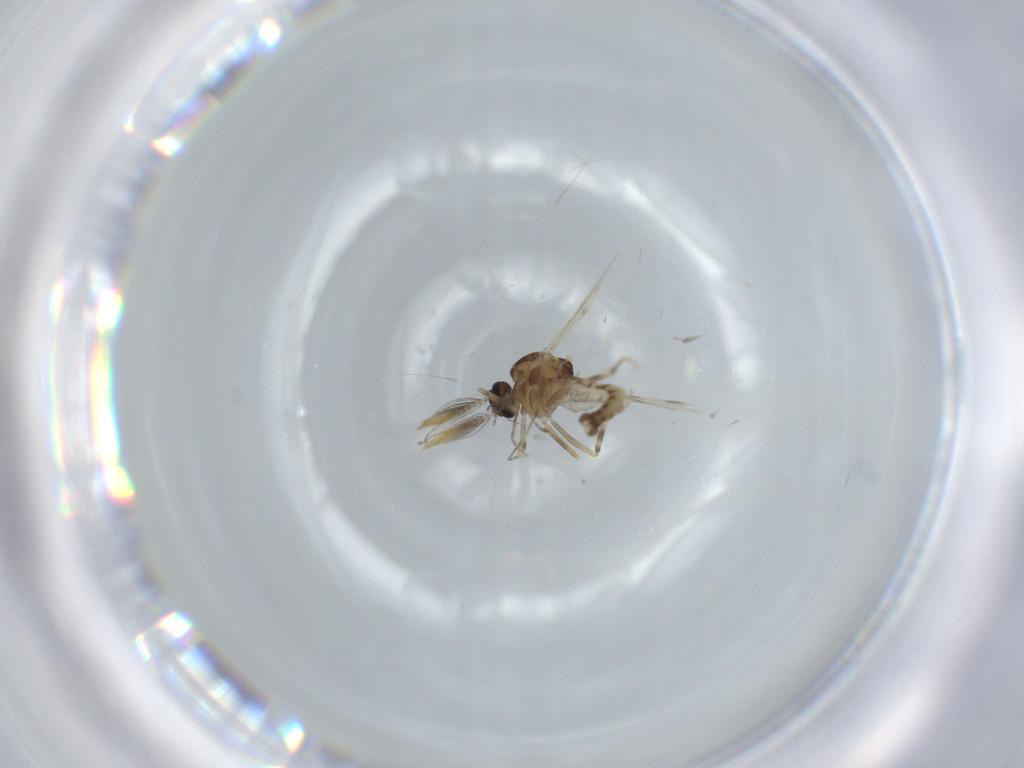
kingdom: Animalia
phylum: Arthropoda
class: Insecta
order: Diptera
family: Ceratopogonidae
